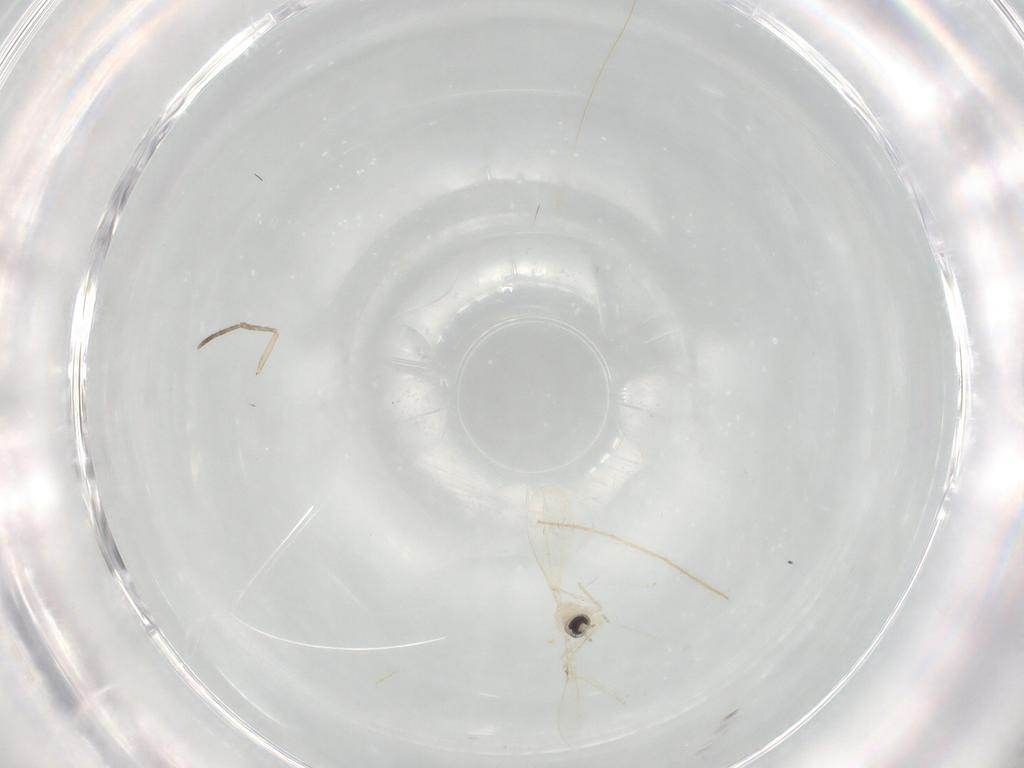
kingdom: Animalia
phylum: Arthropoda
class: Insecta
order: Diptera
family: Cecidomyiidae
